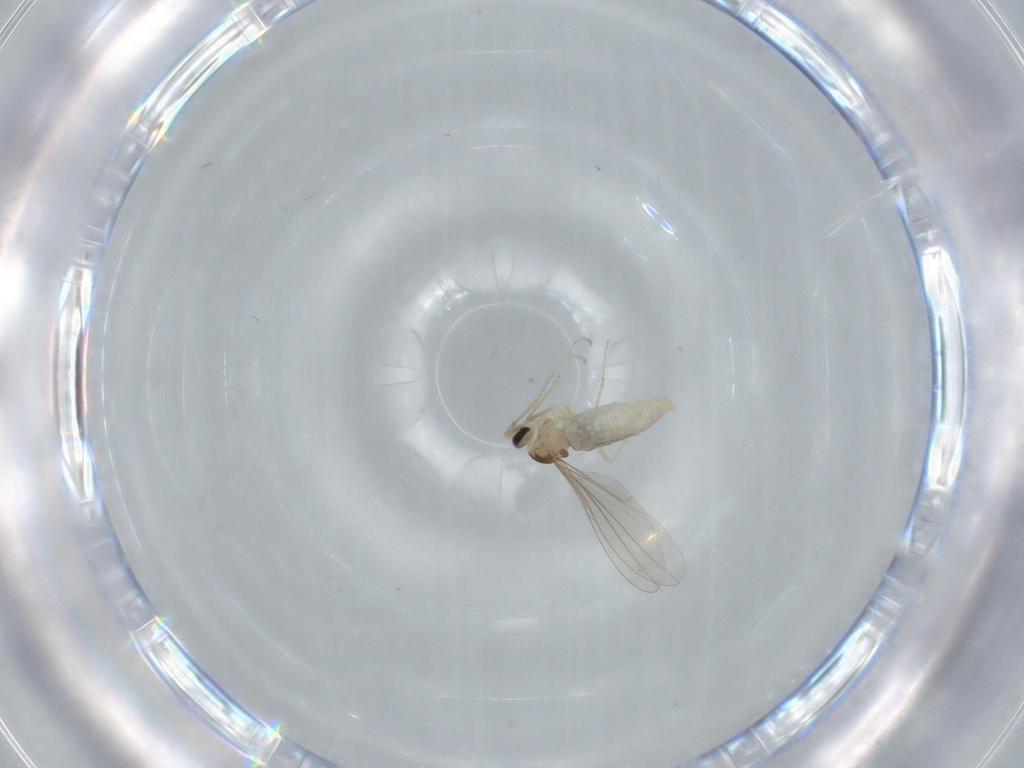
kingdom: Animalia
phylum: Arthropoda
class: Insecta
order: Diptera
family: Cecidomyiidae
